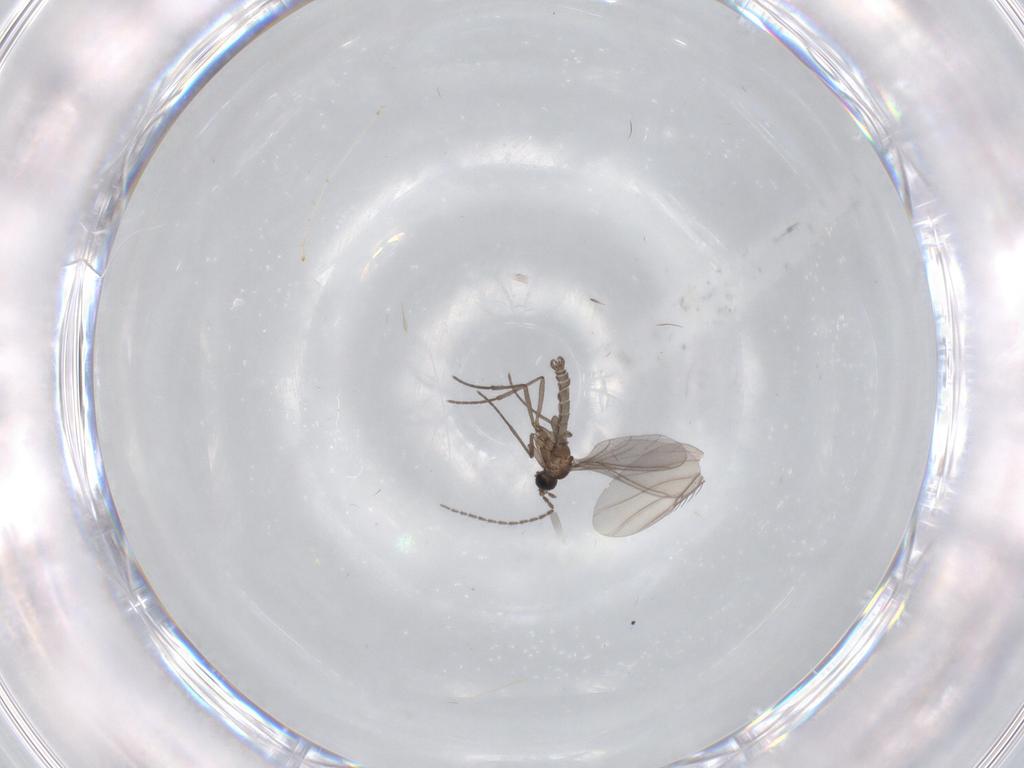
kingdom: Animalia
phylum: Arthropoda
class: Insecta
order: Diptera
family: Sciaridae
